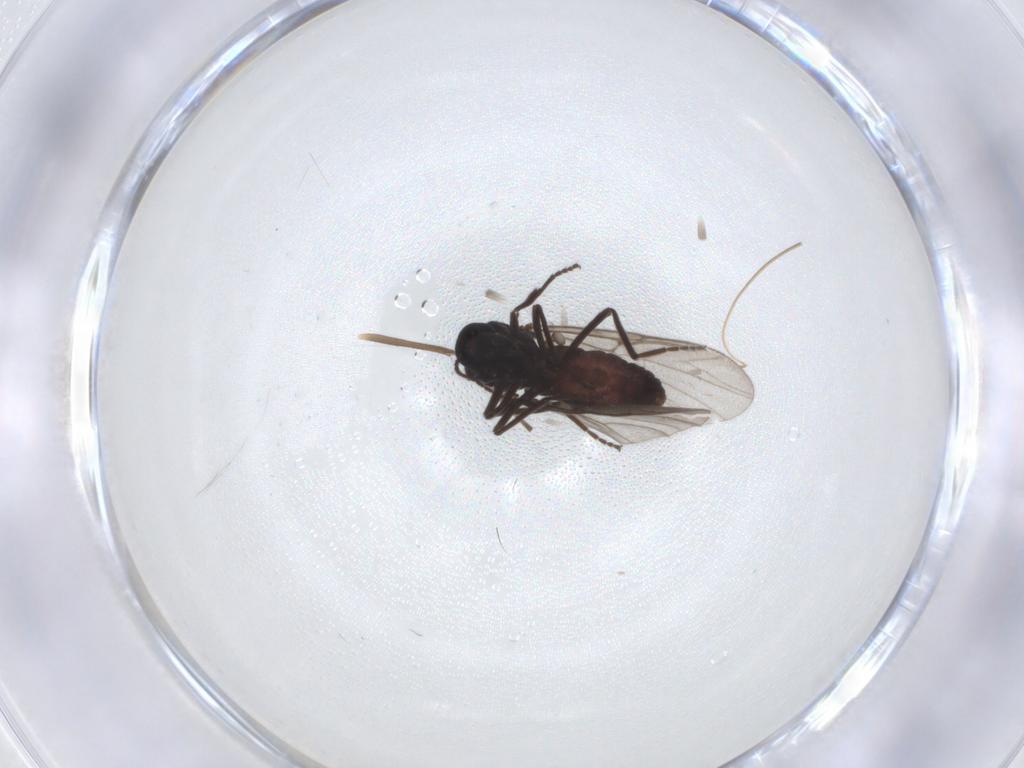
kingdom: Animalia
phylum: Arthropoda
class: Insecta
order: Diptera
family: Ceratopogonidae
